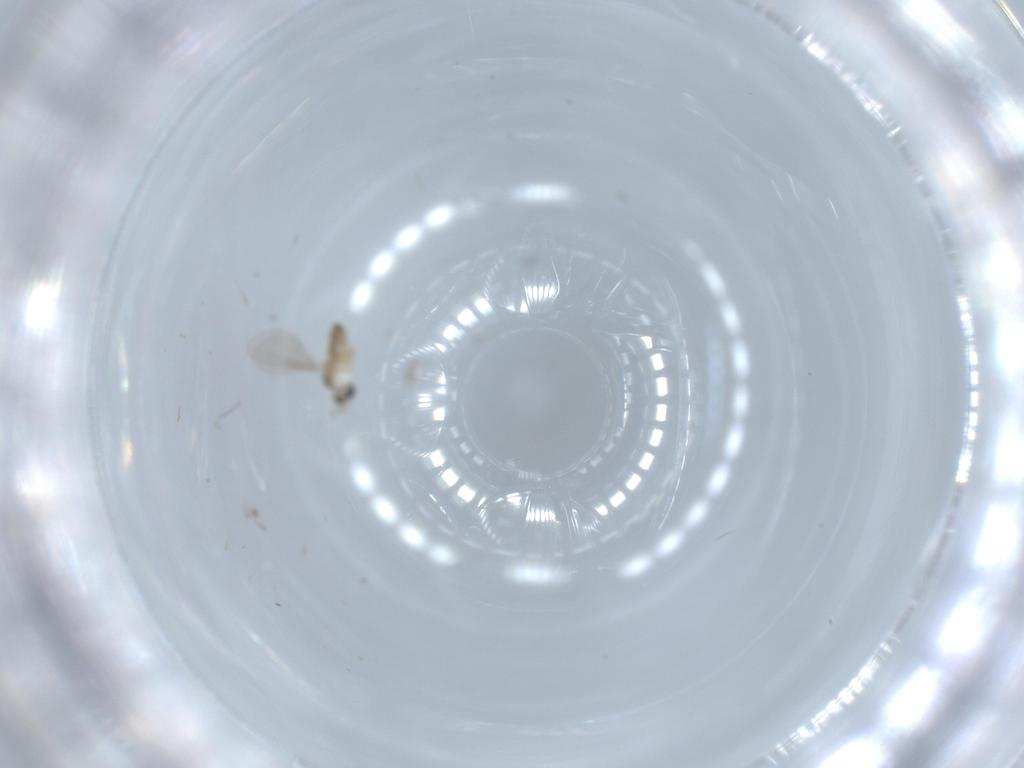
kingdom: Animalia
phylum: Arthropoda
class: Insecta
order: Diptera
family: Cecidomyiidae
